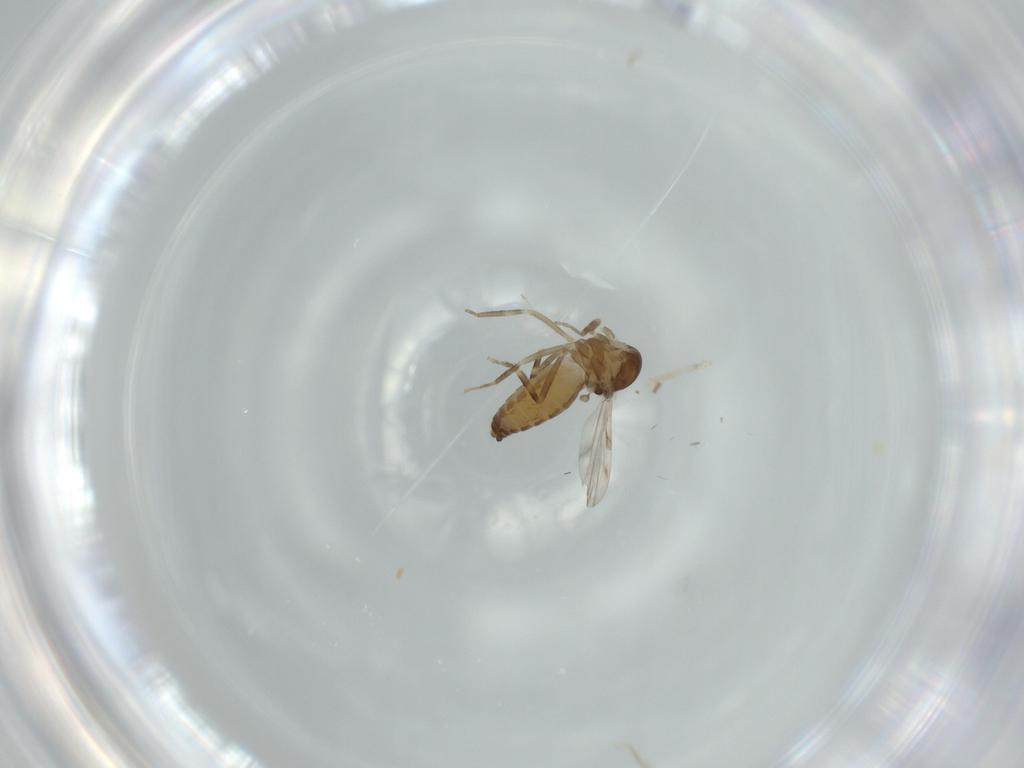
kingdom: Animalia
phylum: Arthropoda
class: Insecta
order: Diptera
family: Ceratopogonidae
